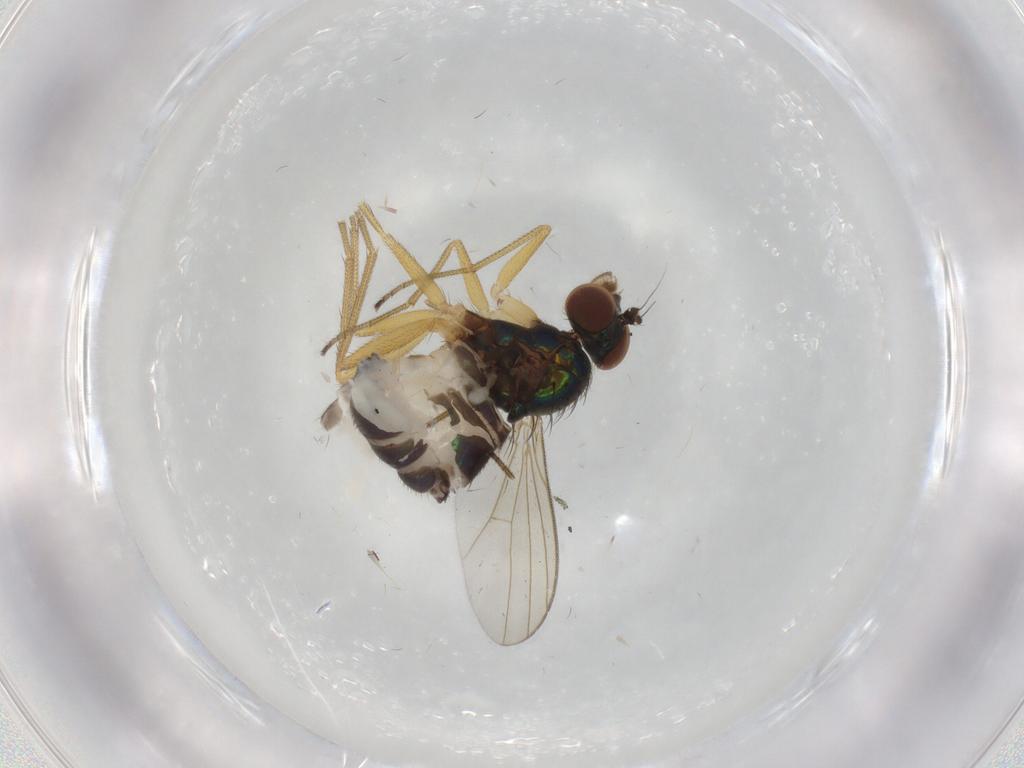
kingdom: Animalia
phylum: Arthropoda
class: Insecta
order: Diptera
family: Dolichopodidae
